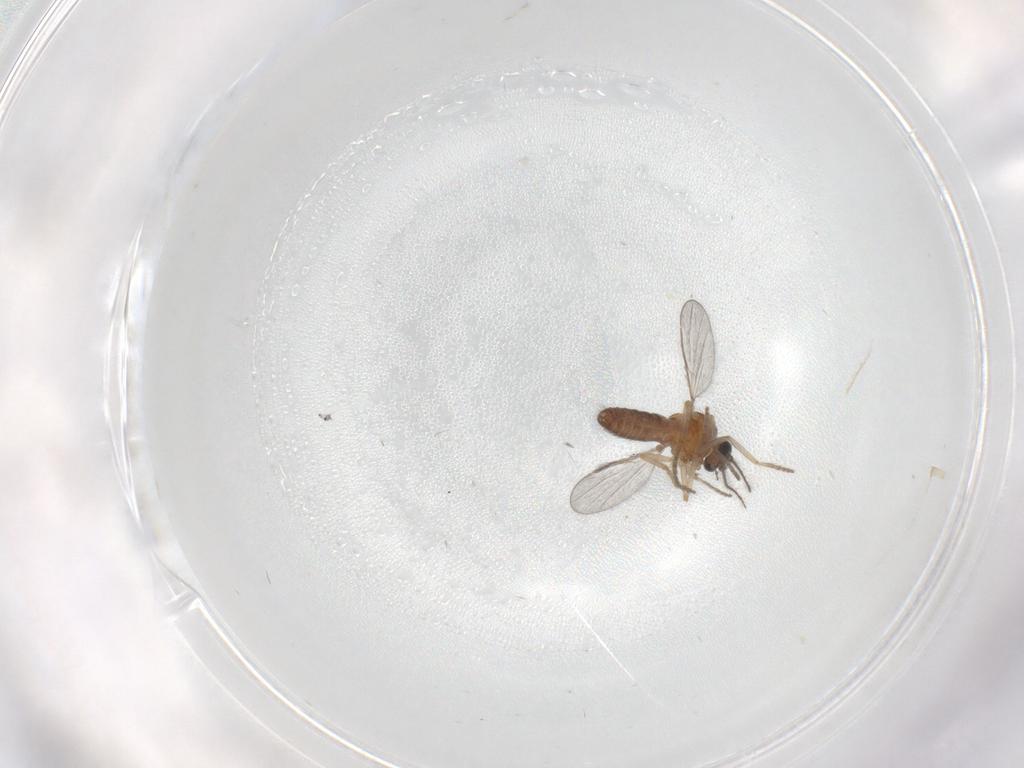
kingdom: Animalia
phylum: Arthropoda
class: Insecta
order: Diptera
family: Ceratopogonidae
